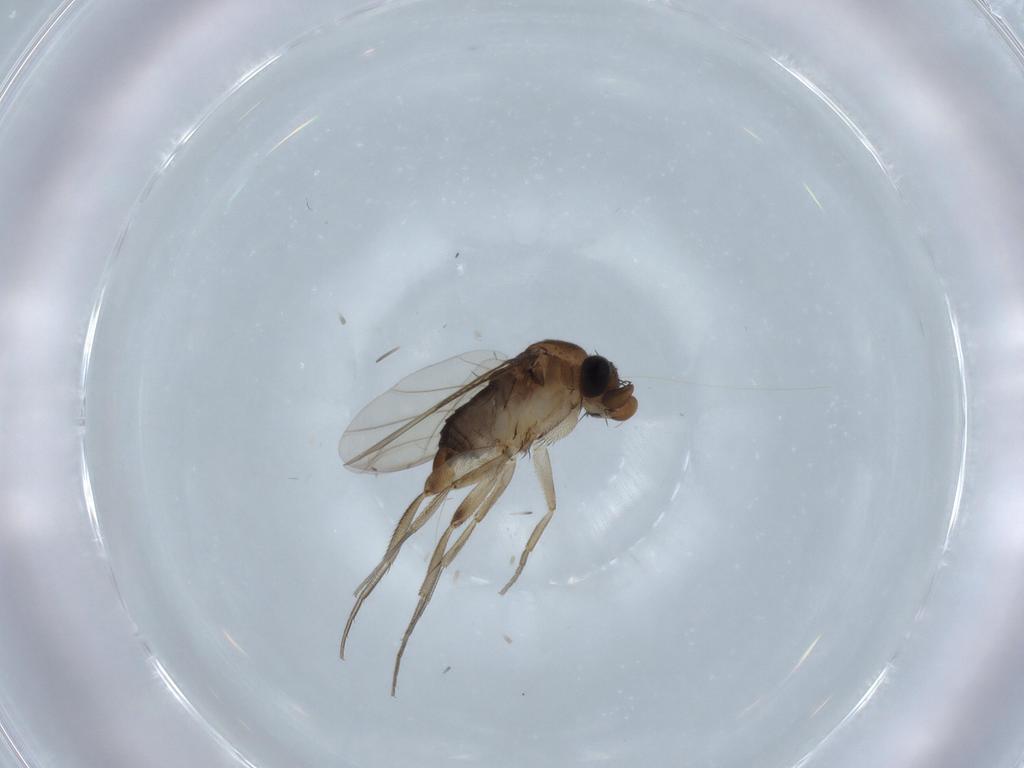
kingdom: Animalia
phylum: Arthropoda
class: Insecta
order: Diptera
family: Phoridae
